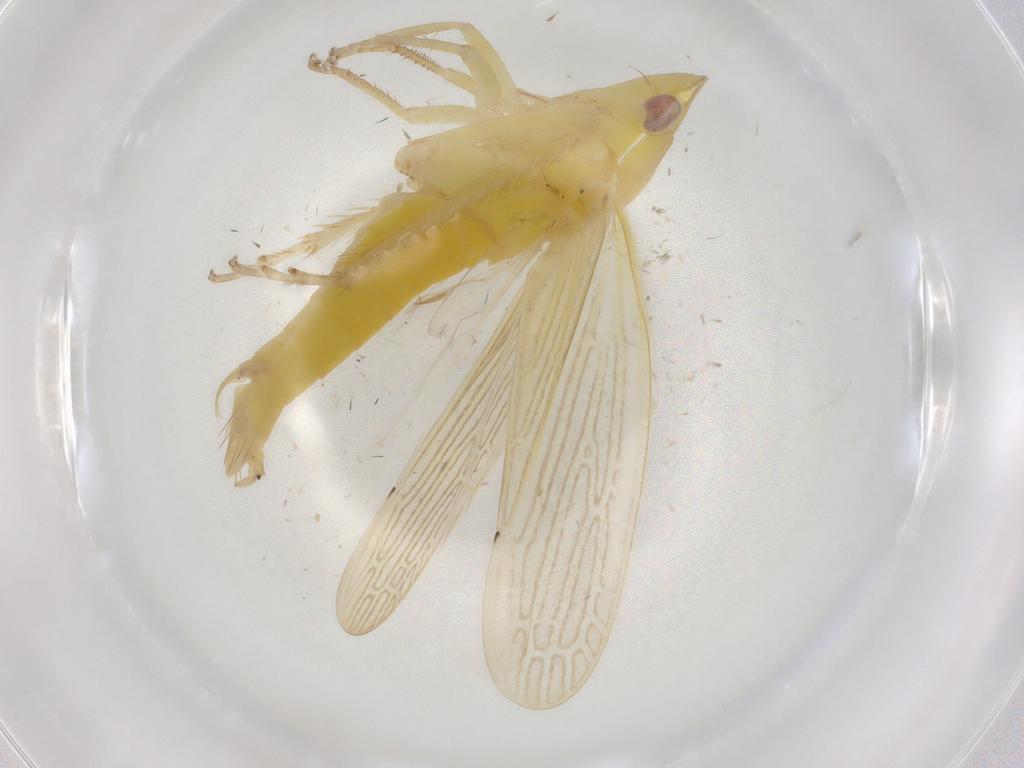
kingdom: Animalia
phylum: Arthropoda
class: Insecta
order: Hemiptera
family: Cicadellidae
